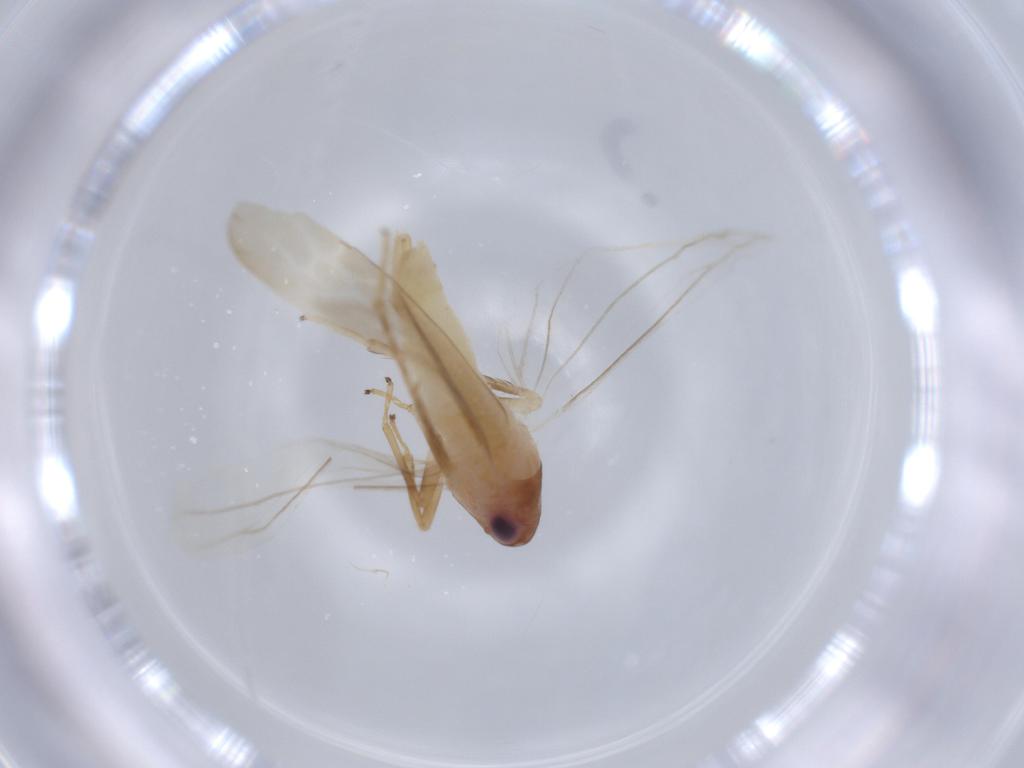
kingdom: Animalia
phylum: Arthropoda
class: Insecta
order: Hemiptera
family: Cicadellidae
